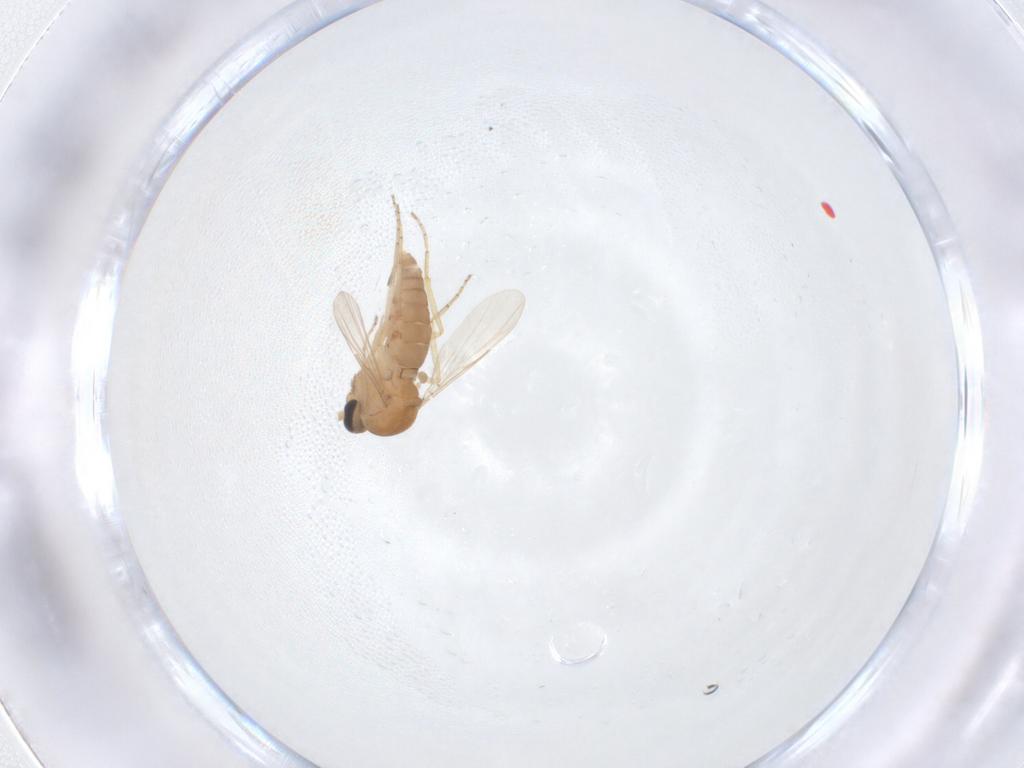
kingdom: Animalia
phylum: Arthropoda
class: Insecta
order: Diptera
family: Ceratopogonidae
